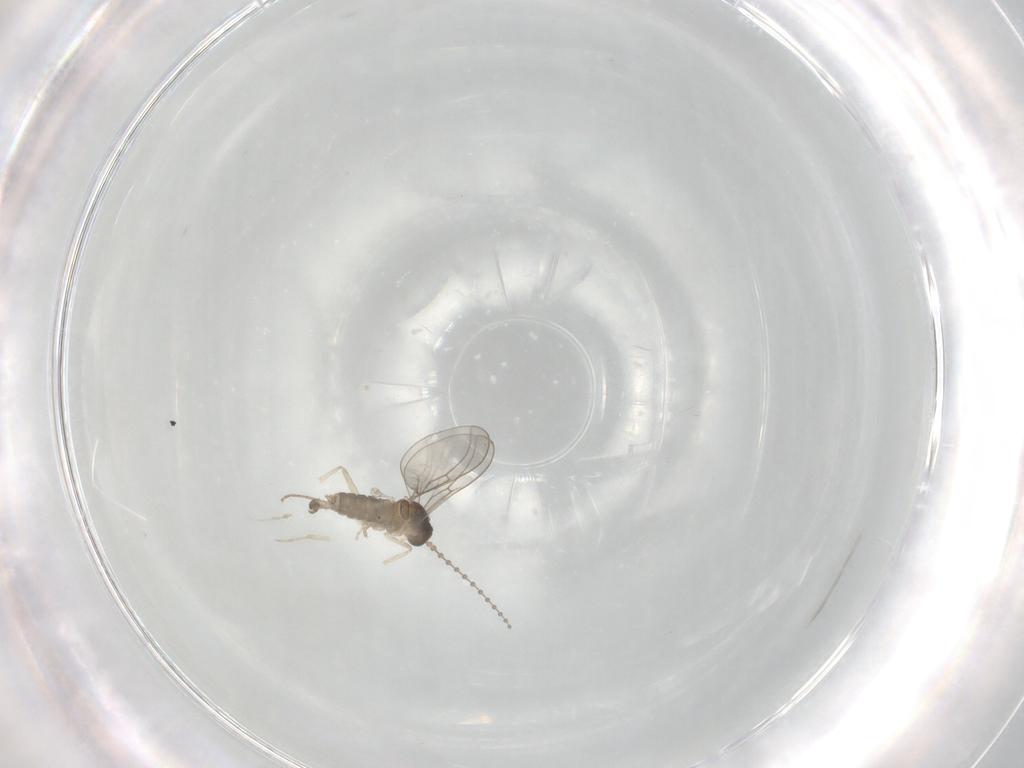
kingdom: Animalia
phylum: Arthropoda
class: Insecta
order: Diptera
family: Cecidomyiidae
